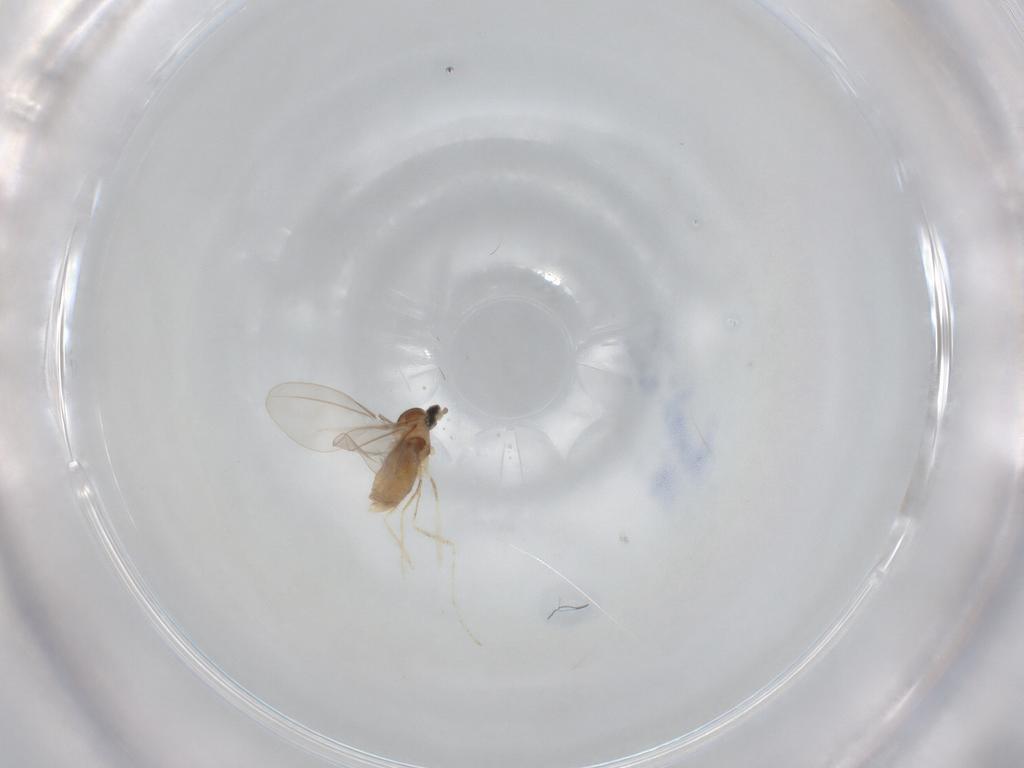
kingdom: Animalia
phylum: Arthropoda
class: Insecta
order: Diptera
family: Cecidomyiidae
